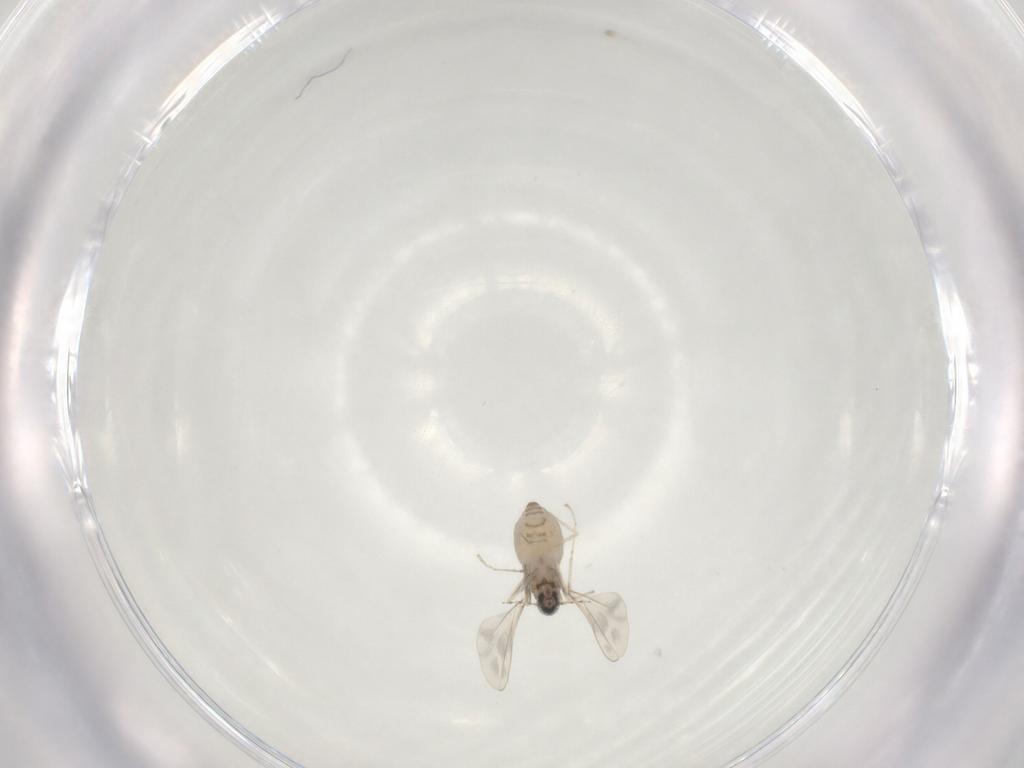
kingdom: Animalia
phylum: Arthropoda
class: Insecta
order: Diptera
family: Cecidomyiidae
